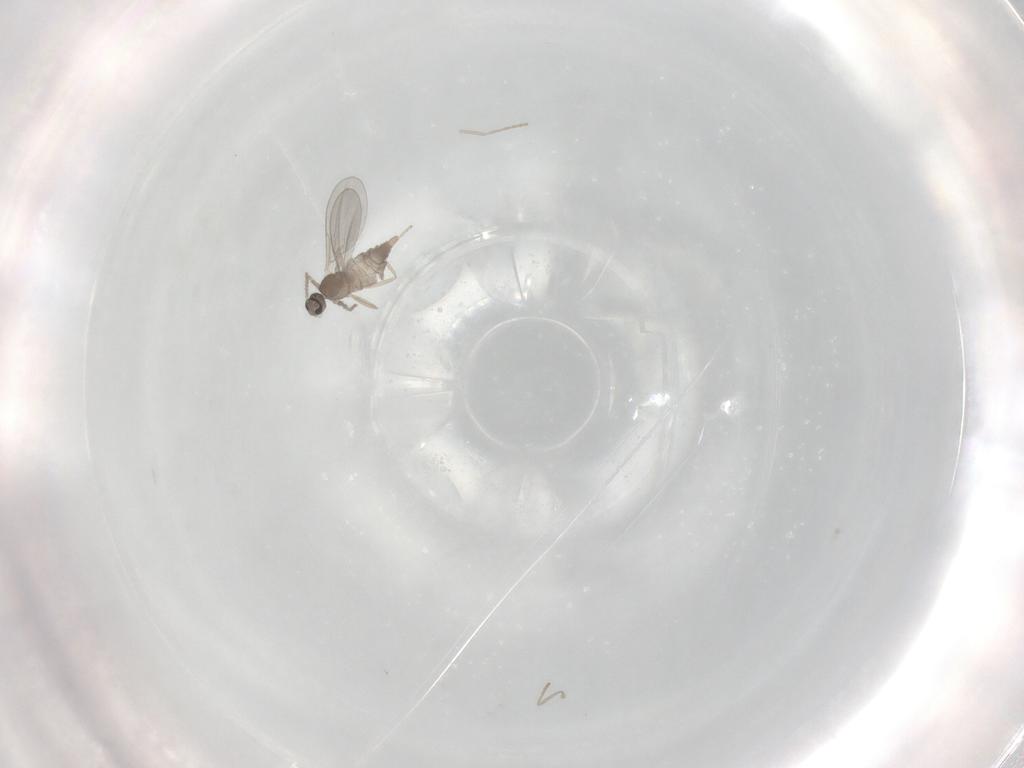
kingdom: Animalia
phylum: Arthropoda
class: Insecta
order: Diptera
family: Cecidomyiidae
